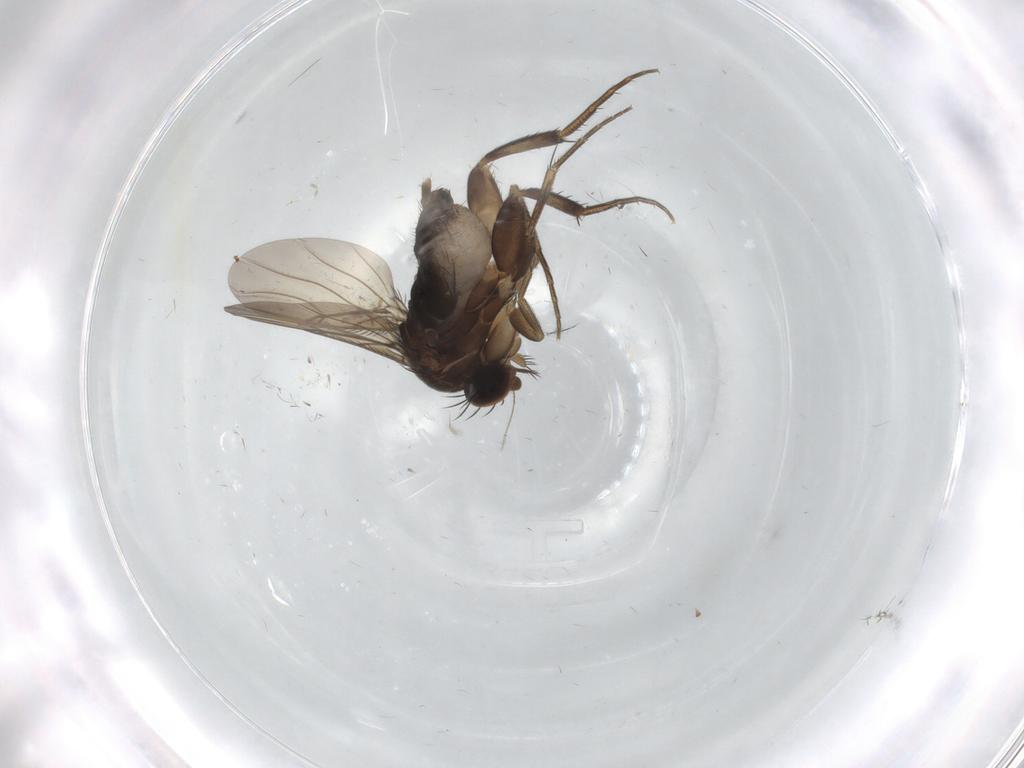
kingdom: Animalia
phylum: Arthropoda
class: Insecta
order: Diptera
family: Phoridae
